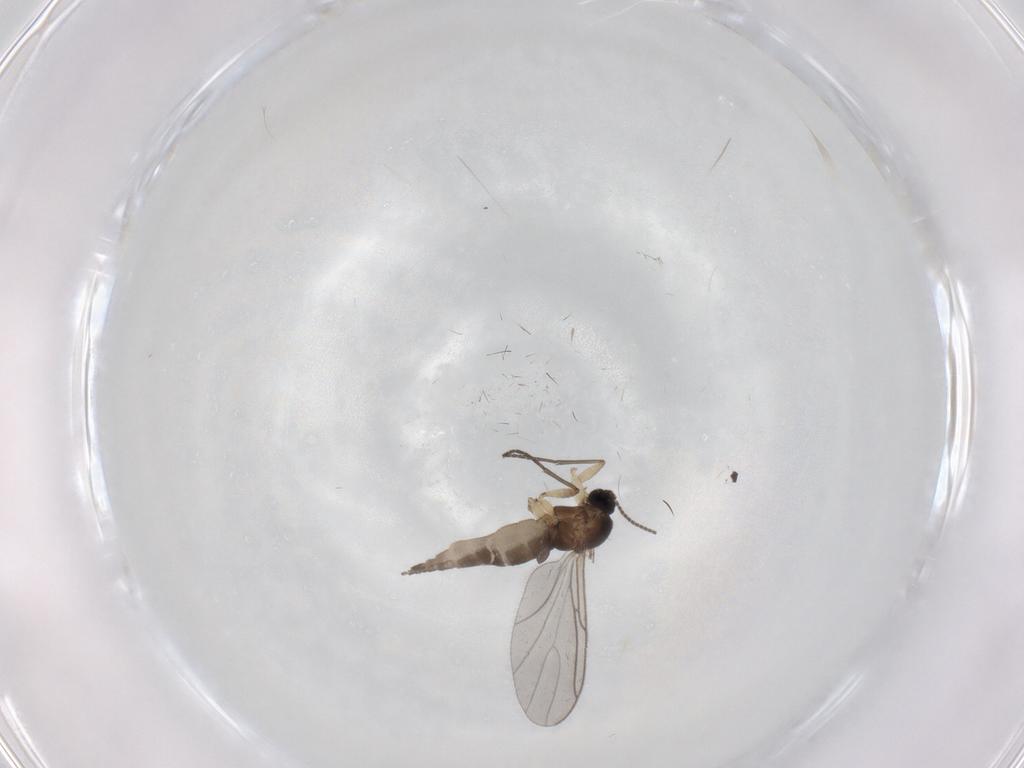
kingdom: Animalia
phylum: Arthropoda
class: Insecta
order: Diptera
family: Sciaridae
